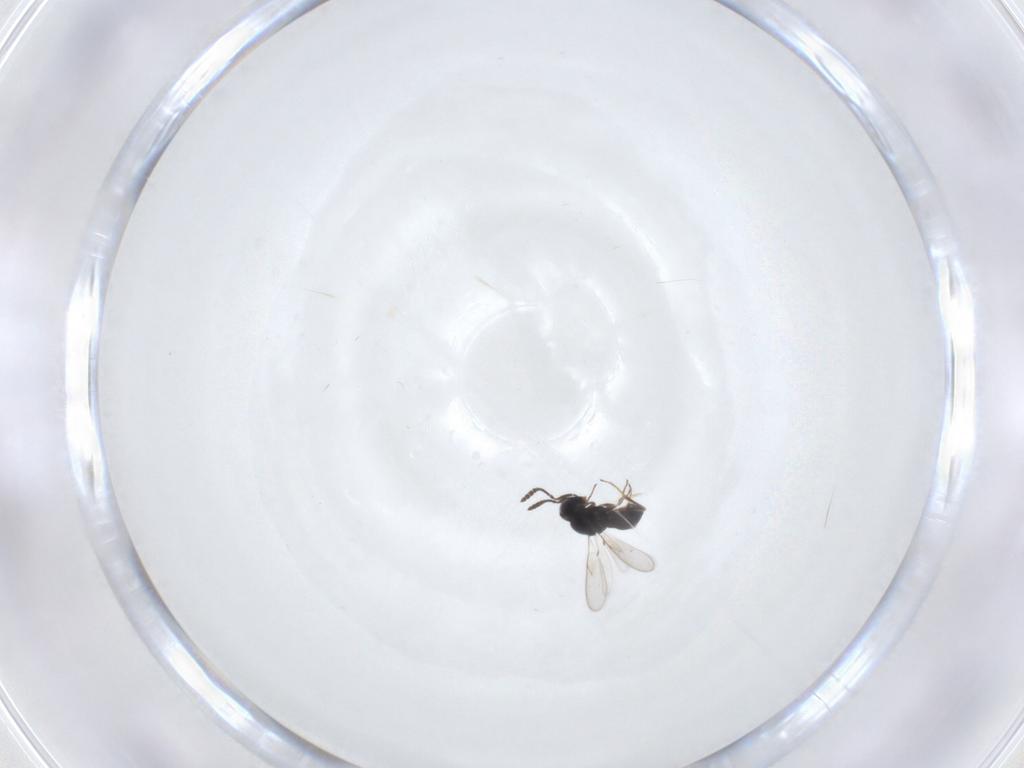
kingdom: Animalia
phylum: Arthropoda
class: Insecta
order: Hymenoptera
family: Scelionidae
